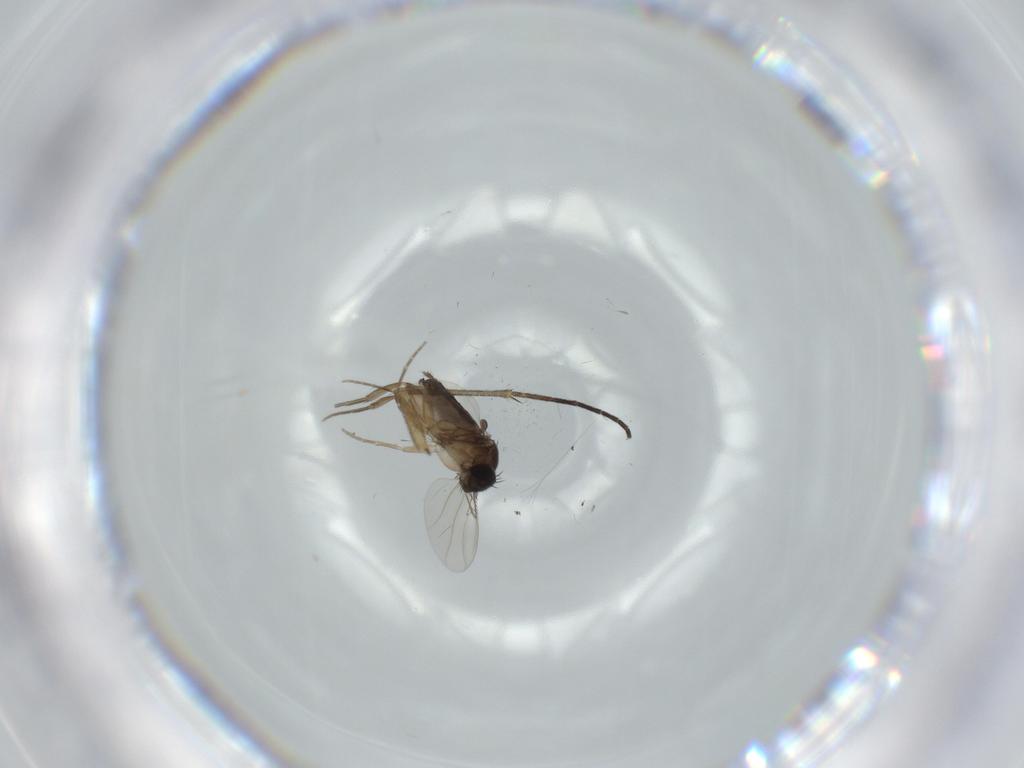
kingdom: Animalia
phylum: Arthropoda
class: Insecta
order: Diptera
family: Phoridae
